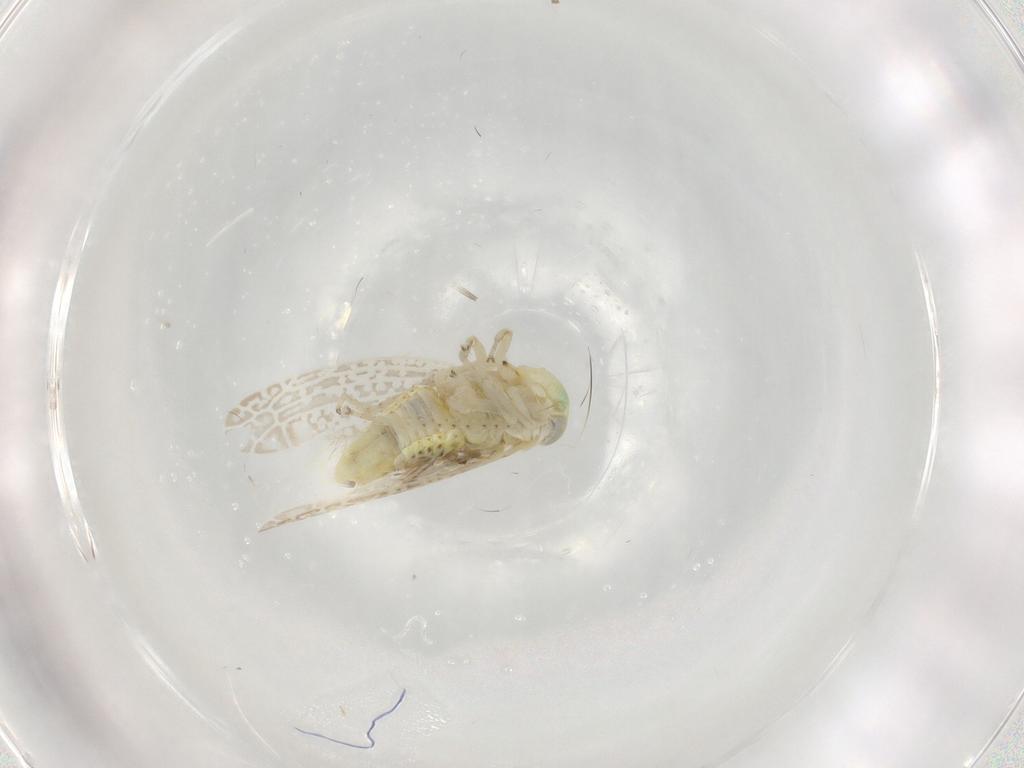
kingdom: Animalia
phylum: Arthropoda
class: Insecta
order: Hemiptera
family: Cicadellidae
